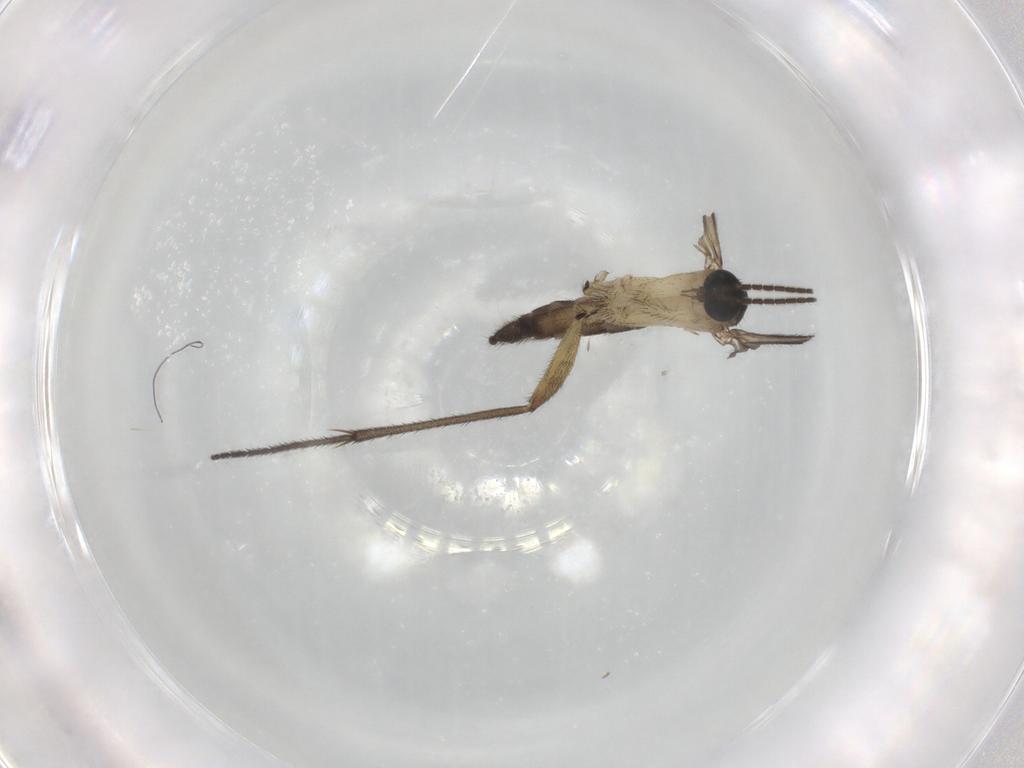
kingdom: Animalia
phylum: Arthropoda
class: Insecta
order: Diptera
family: Sciaridae
